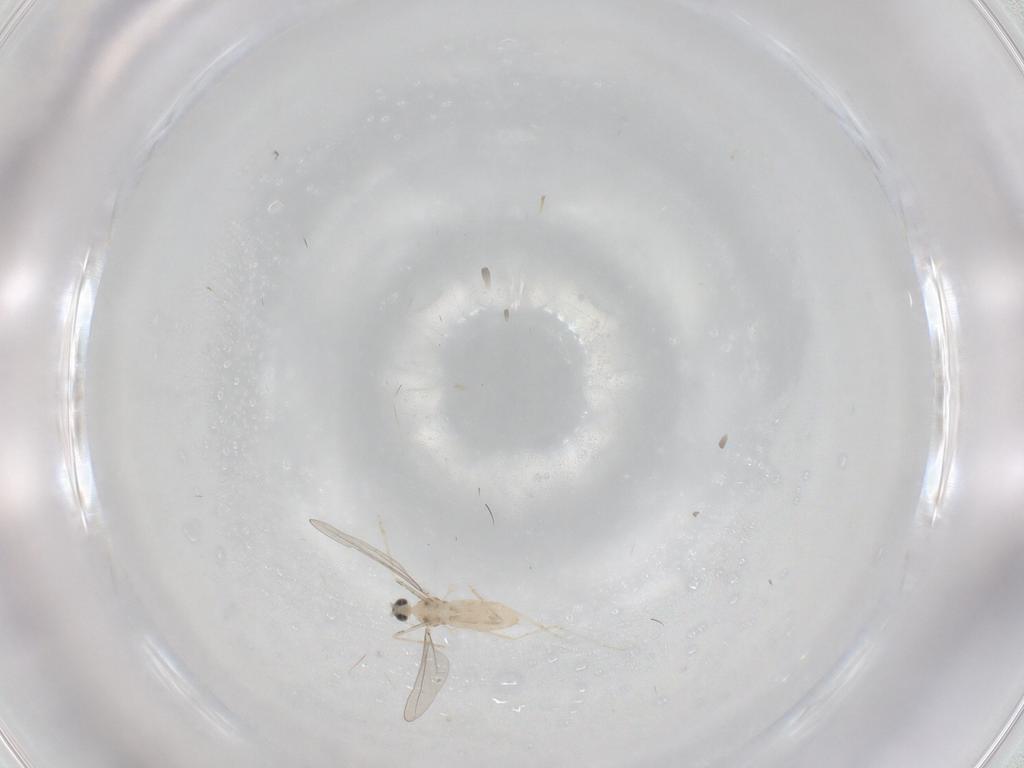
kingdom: Animalia
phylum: Arthropoda
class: Insecta
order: Diptera
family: Cecidomyiidae
